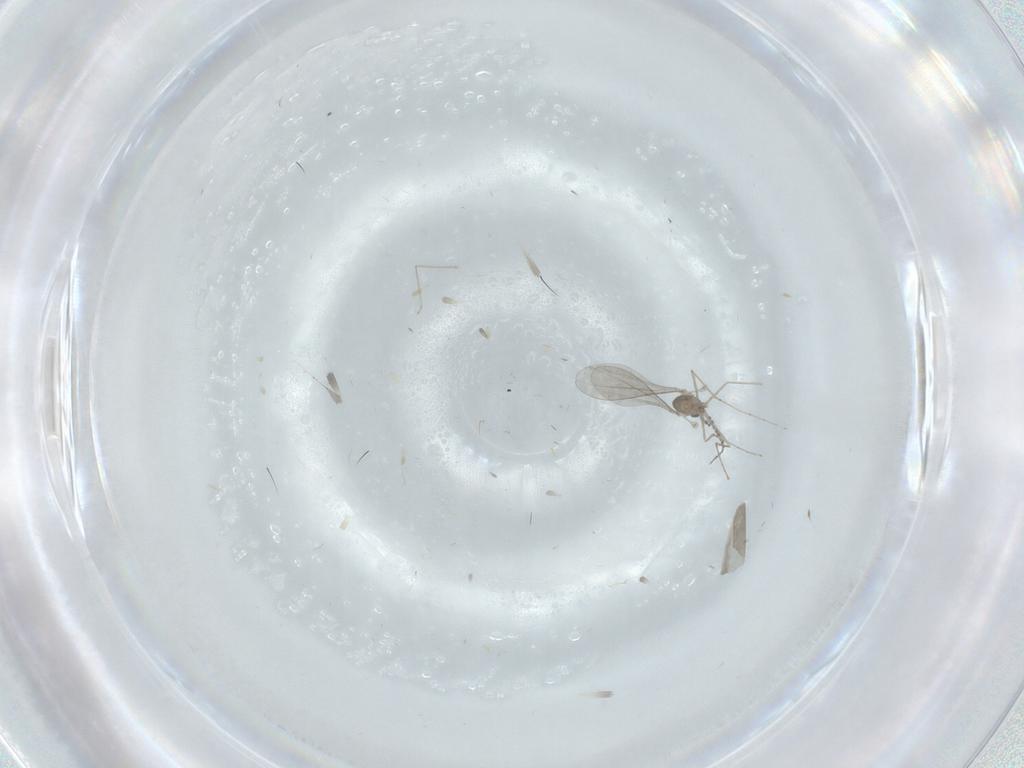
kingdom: Animalia
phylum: Arthropoda
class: Insecta
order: Diptera
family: Cecidomyiidae
